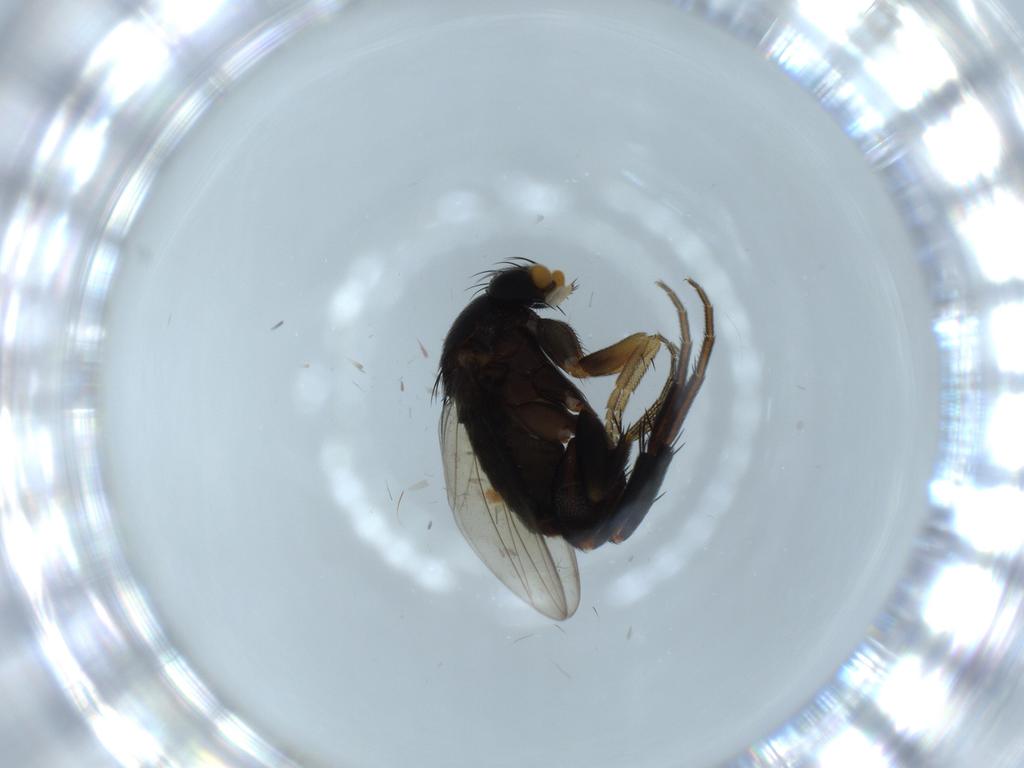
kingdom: Animalia
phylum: Arthropoda
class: Insecta
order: Diptera
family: Phoridae
